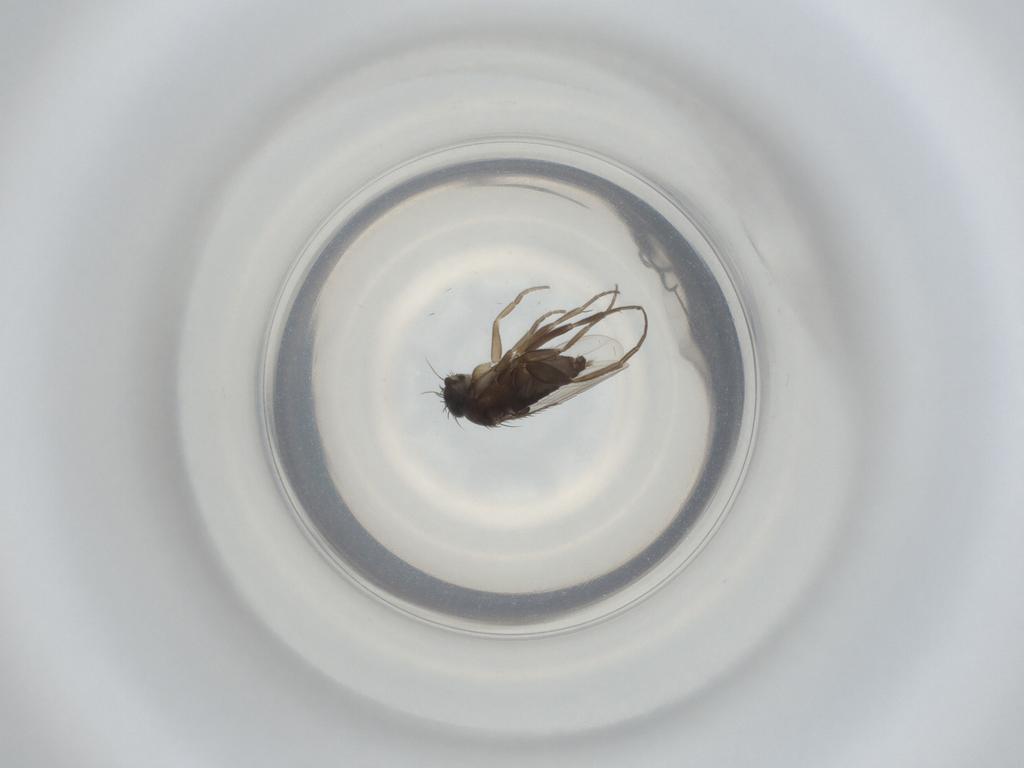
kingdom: Animalia
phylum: Arthropoda
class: Insecta
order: Diptera
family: Phoridae
